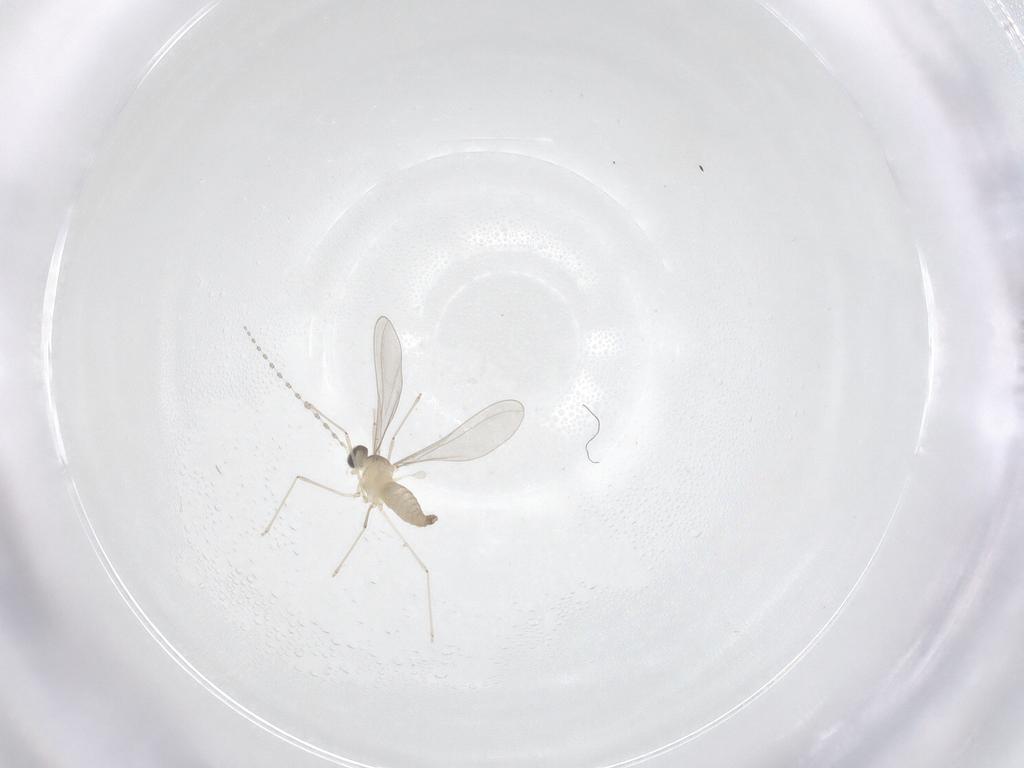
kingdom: Animalia
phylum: Arthropoda
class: Insecta
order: Diptera
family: Cecidomyiidae
